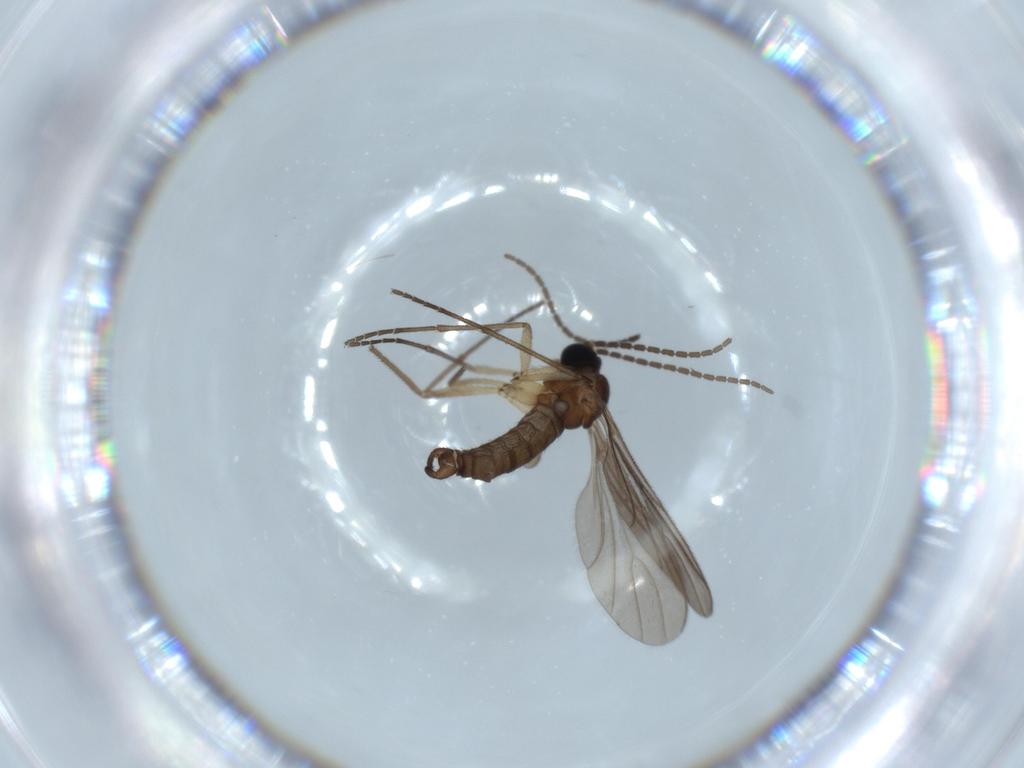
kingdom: Animalia
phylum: Arthropoda
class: Insecta
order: Diptera
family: Sciaridae
